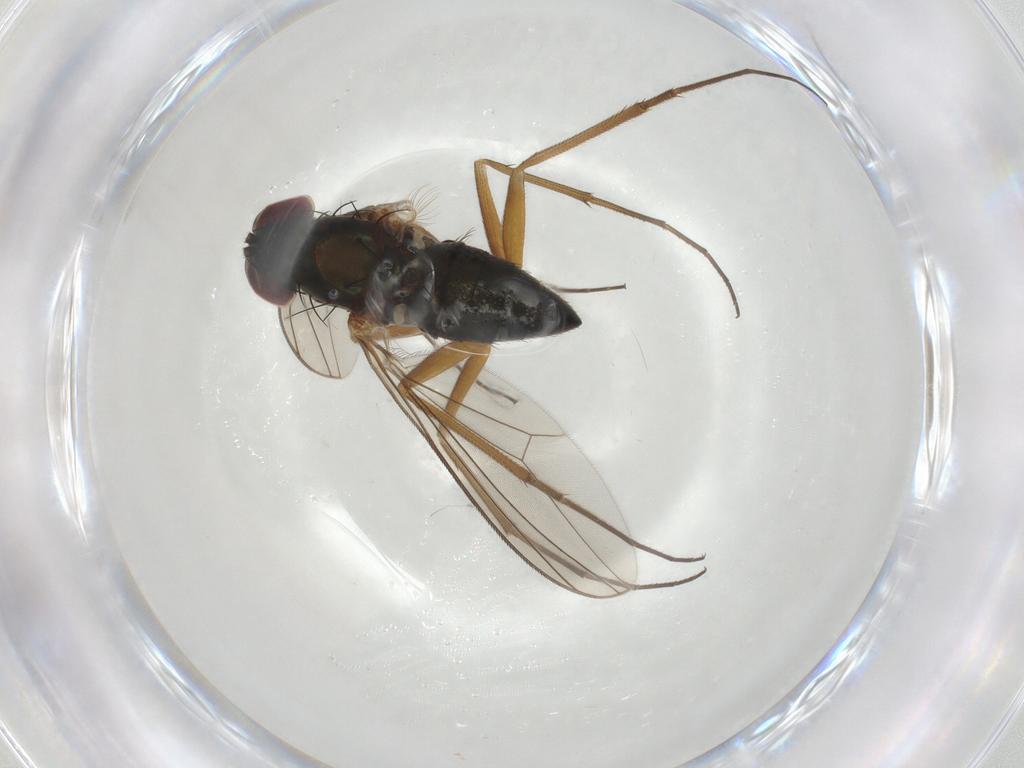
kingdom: Animalia
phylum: Arthropoda
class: Insecta
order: Diptera
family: Dolichopodidae
